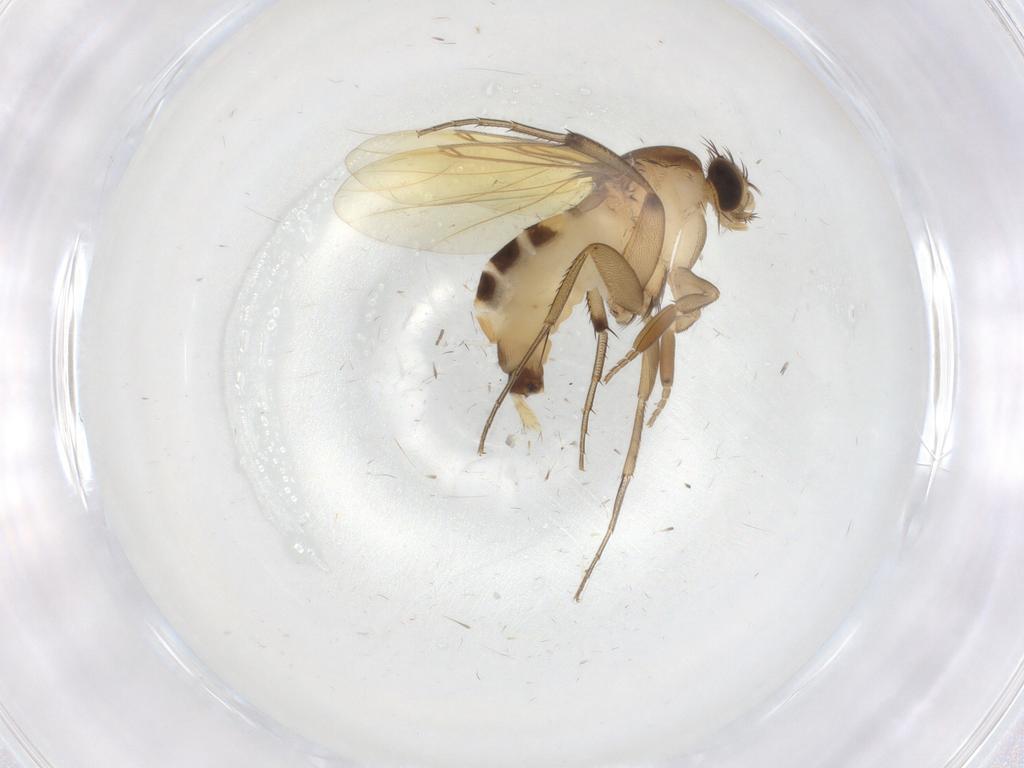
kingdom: Animalia
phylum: Arthropoda
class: Insecta
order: Diptera
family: Phoridae
